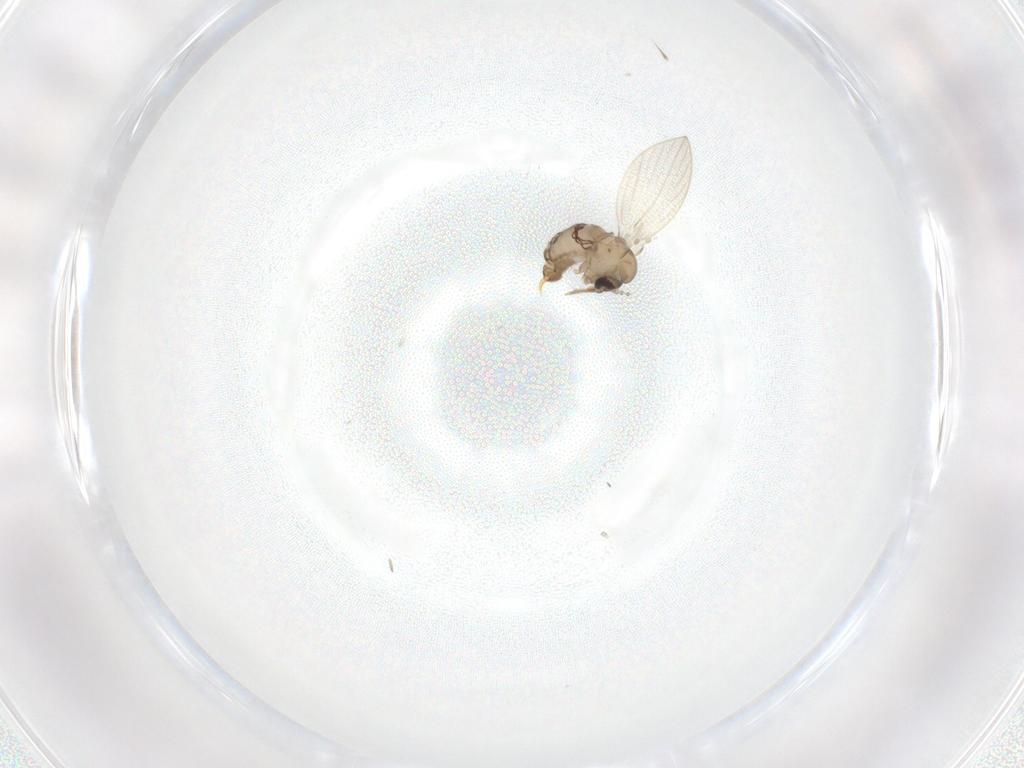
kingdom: Animalia
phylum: Arthropoda
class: Insecta
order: Diptera
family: Psychodidae
